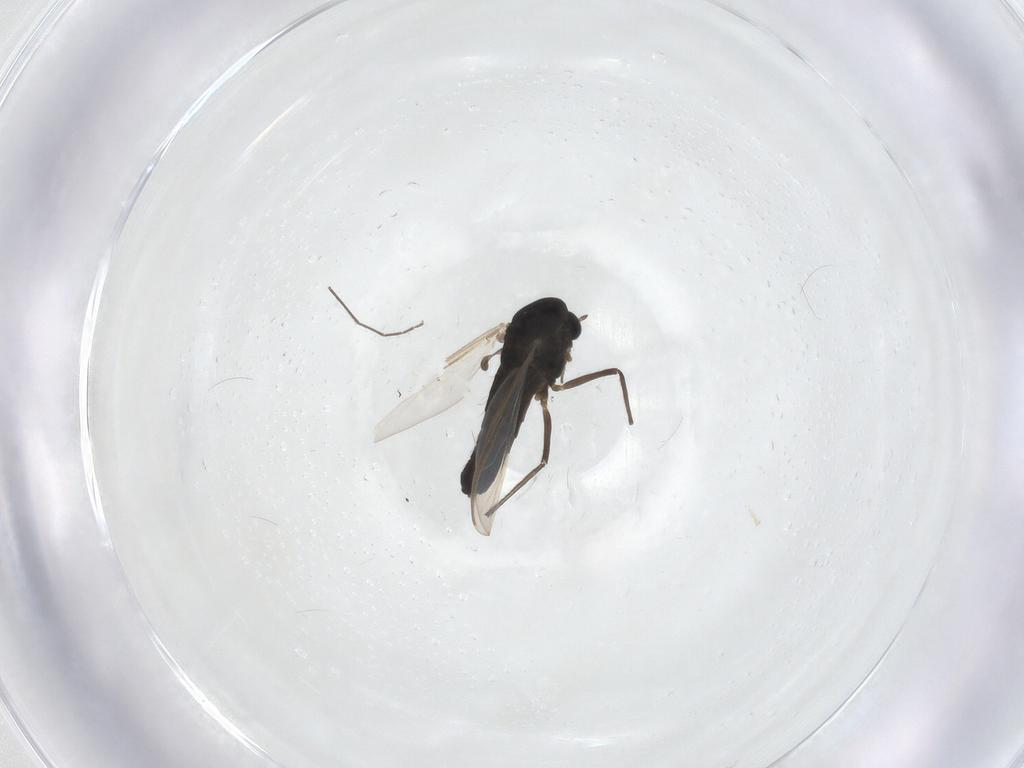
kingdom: Animalia
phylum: Arthropoda
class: Insecta
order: Diptera
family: Chironomidae
